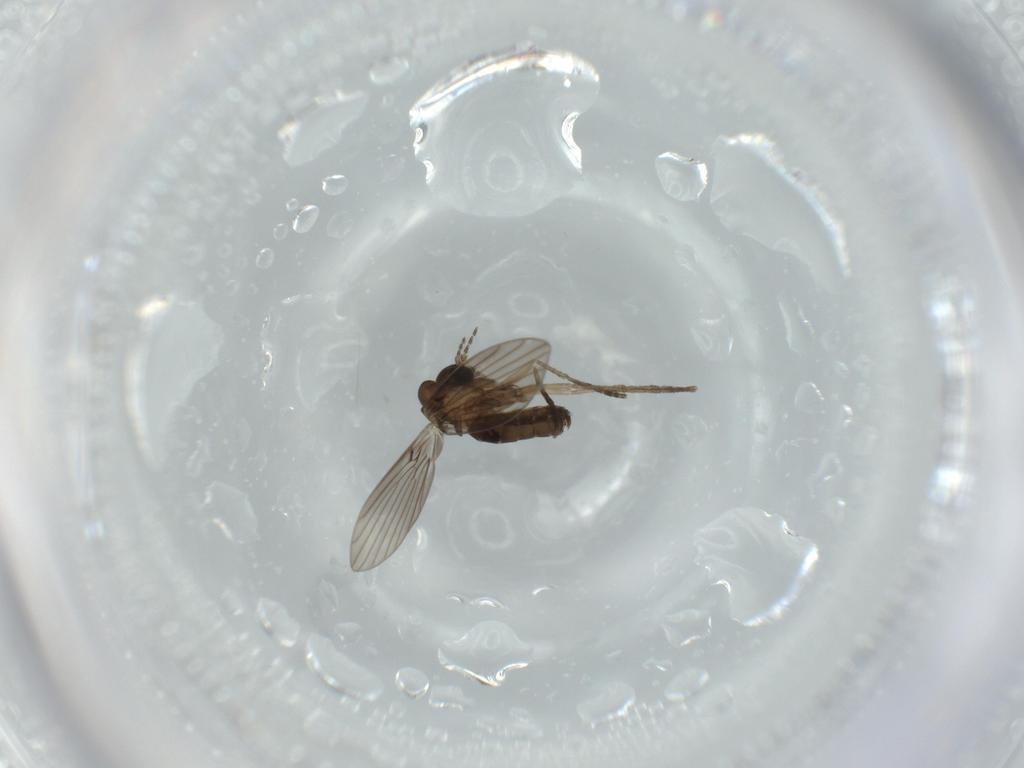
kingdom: Animalia
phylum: Arthropoda
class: Insecta
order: Diptera
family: Psychodidae
